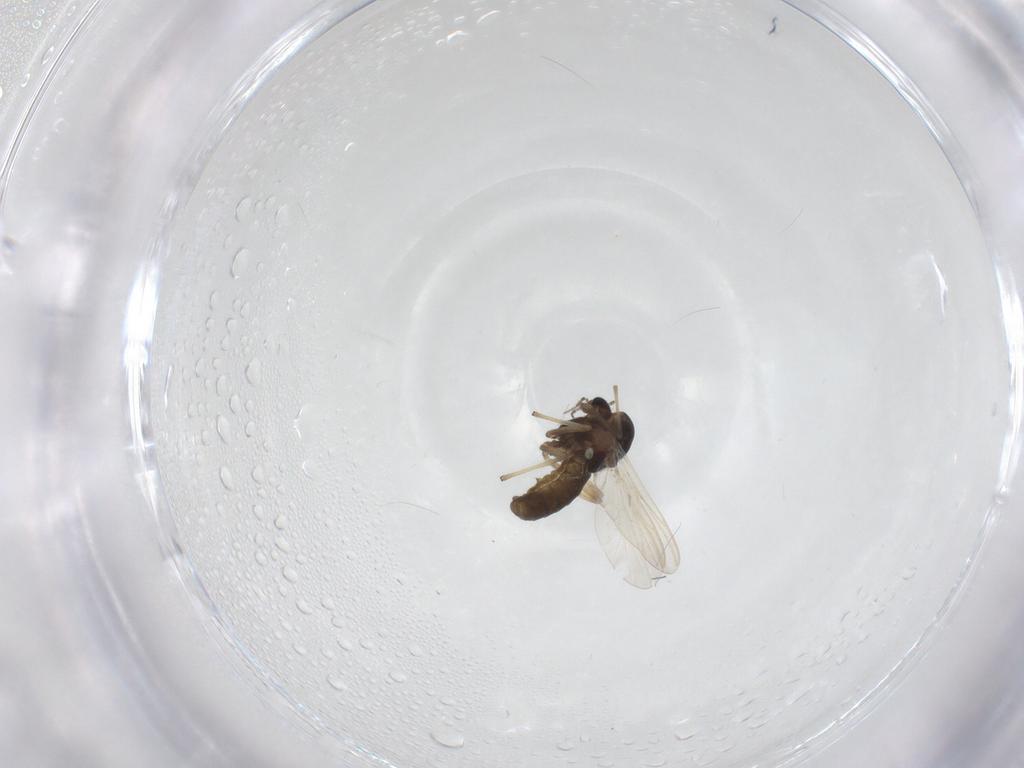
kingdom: Animalia
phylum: Arthropoda
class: Insecta
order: Diptera
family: Chironomidae
